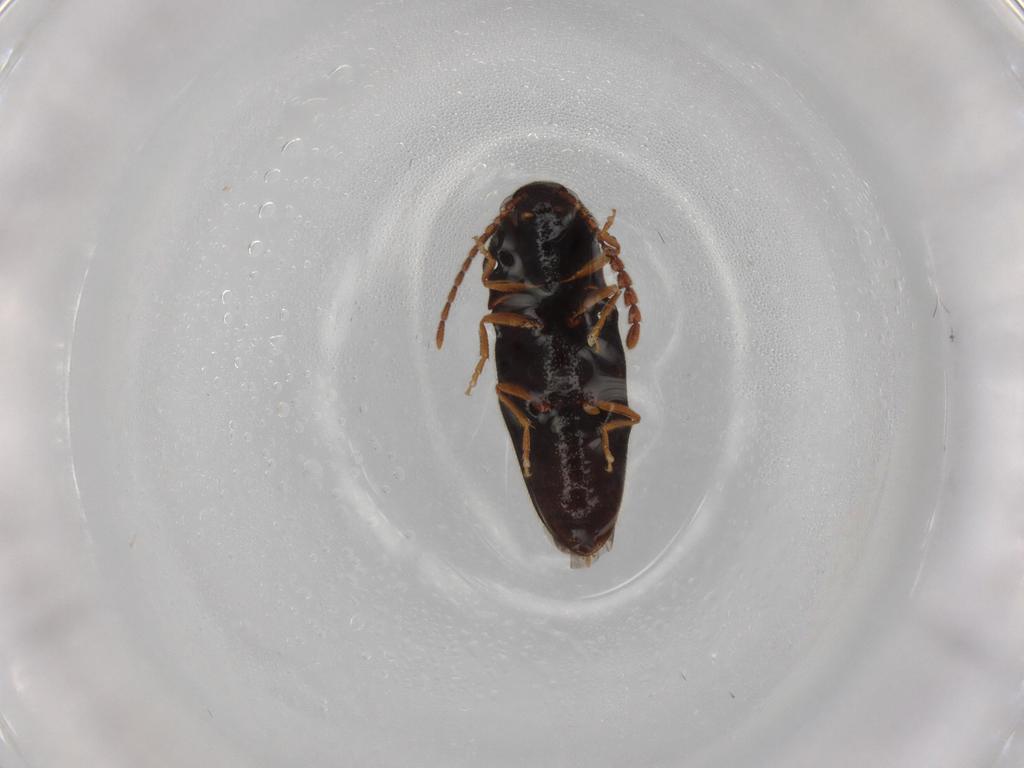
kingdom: Animalia
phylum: Arthropoda
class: Insecta
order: Coleoptera
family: Elateridae
